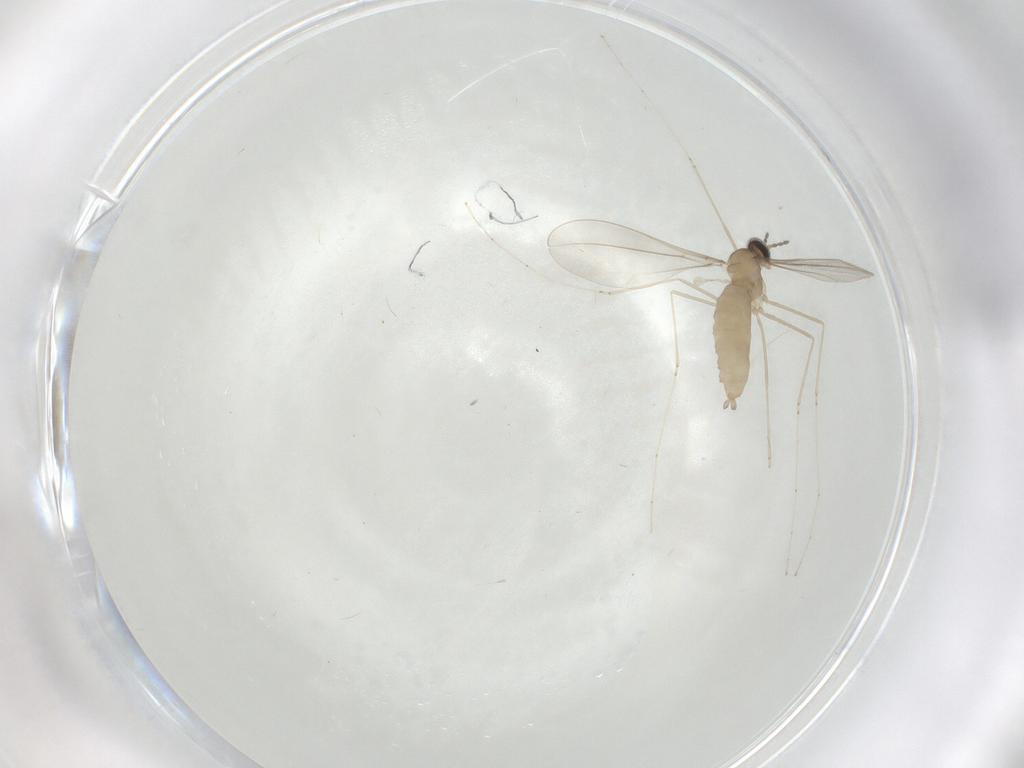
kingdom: Animalia
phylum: Arthropoda
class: Insecta
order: Diptera
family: Cecidomyiidae
